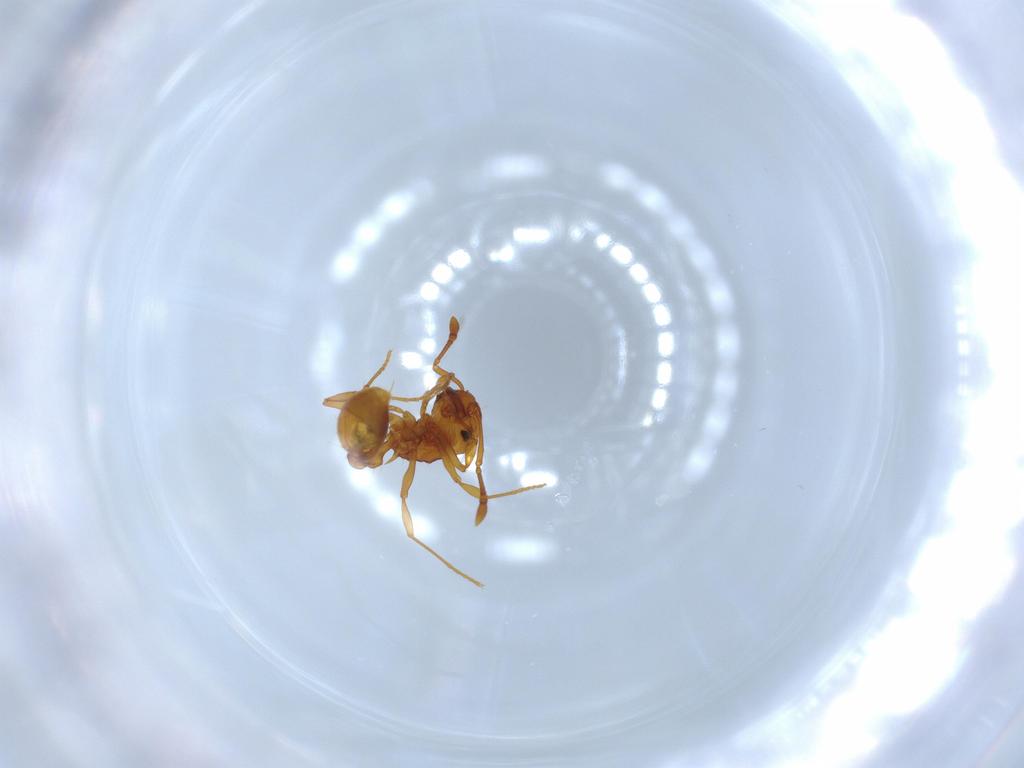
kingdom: Animalia
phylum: Arthropoda
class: Insecta
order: Hymenoptera
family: Formicidae
